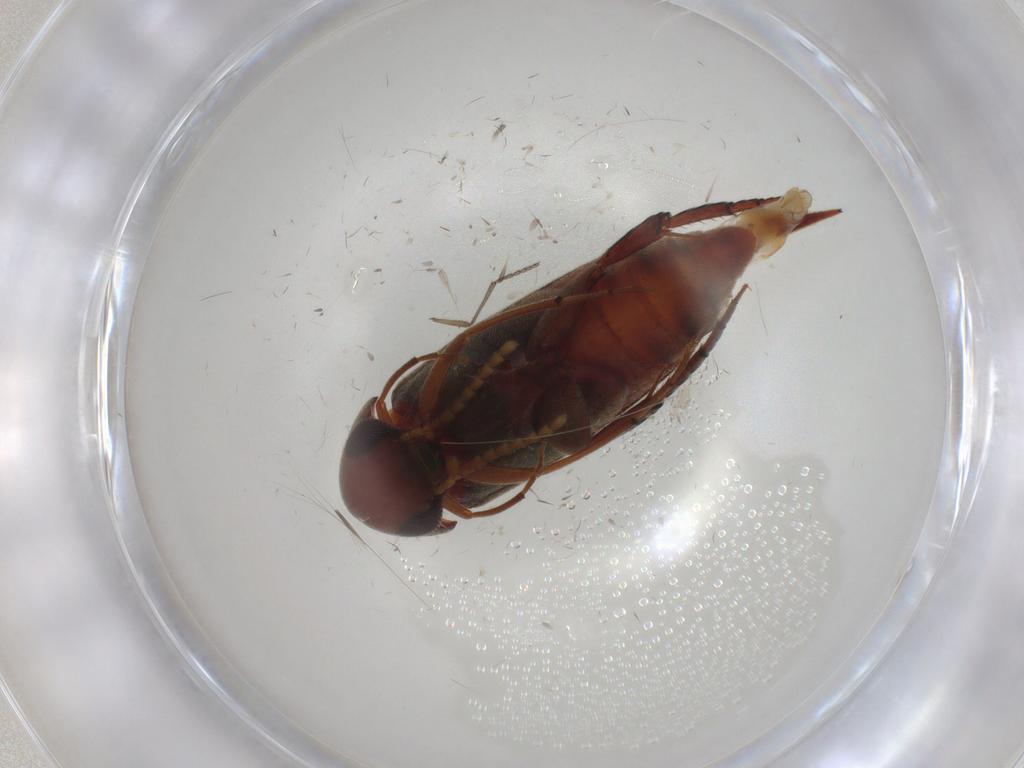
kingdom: Animalia
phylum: Arthropoda
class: Insecta
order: Coleoptera
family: Mordellidae
